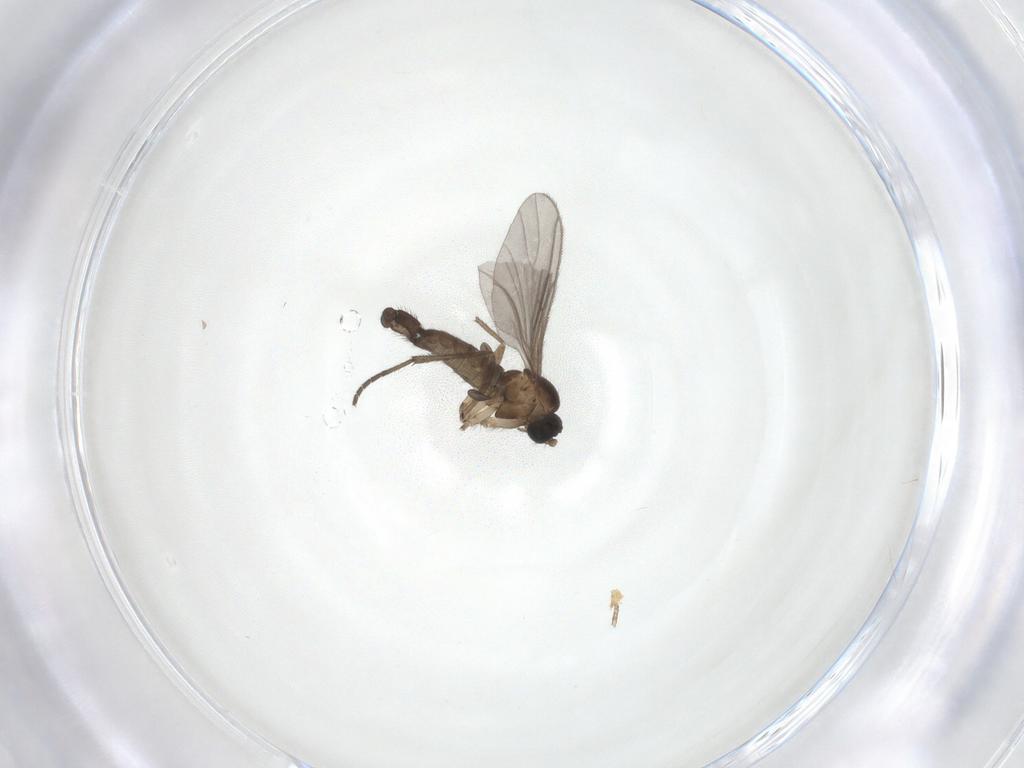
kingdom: Animalia
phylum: Arthropoda
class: Insecta
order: Diptera
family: Sciaridae
